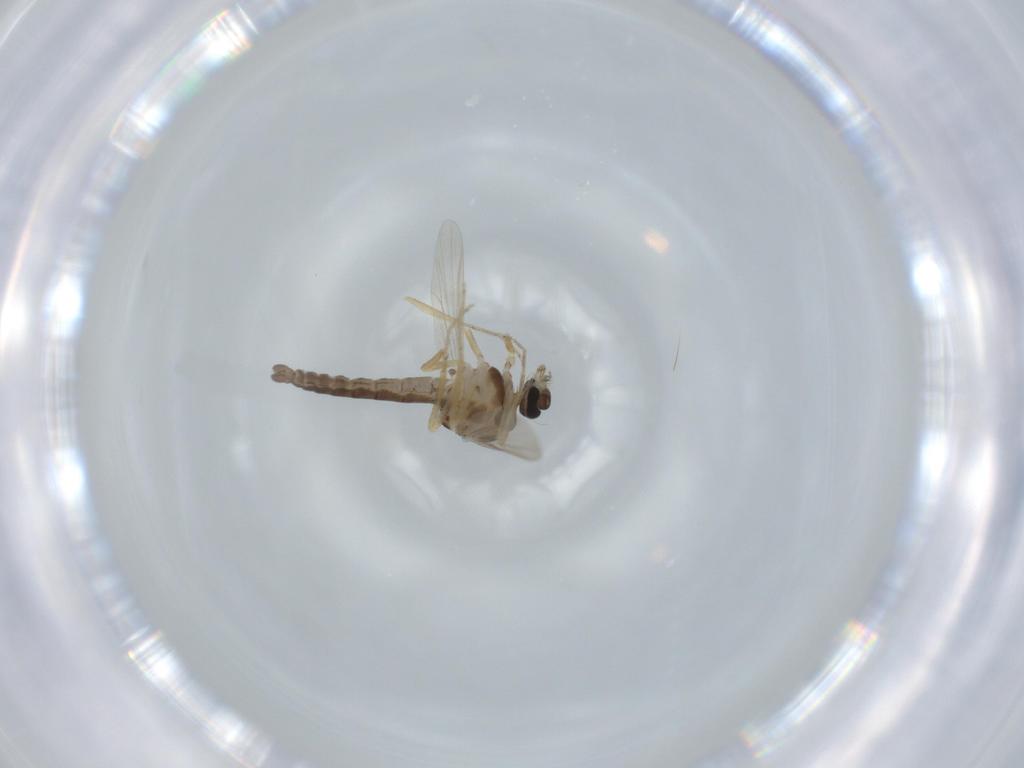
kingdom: Animalia
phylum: Arthropoda
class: Insecta
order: Diptera
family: Ceratopogonidae
